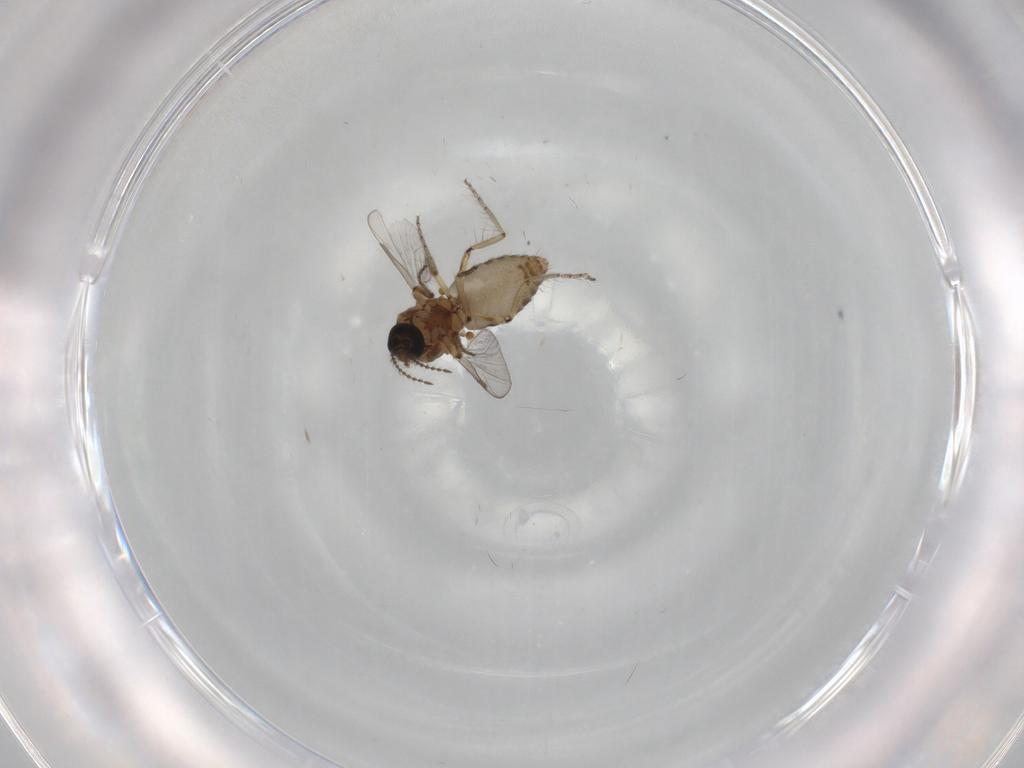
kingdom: Animalia
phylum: Arthropoda
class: Insecta
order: Diptera
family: Ceratopogonidae
